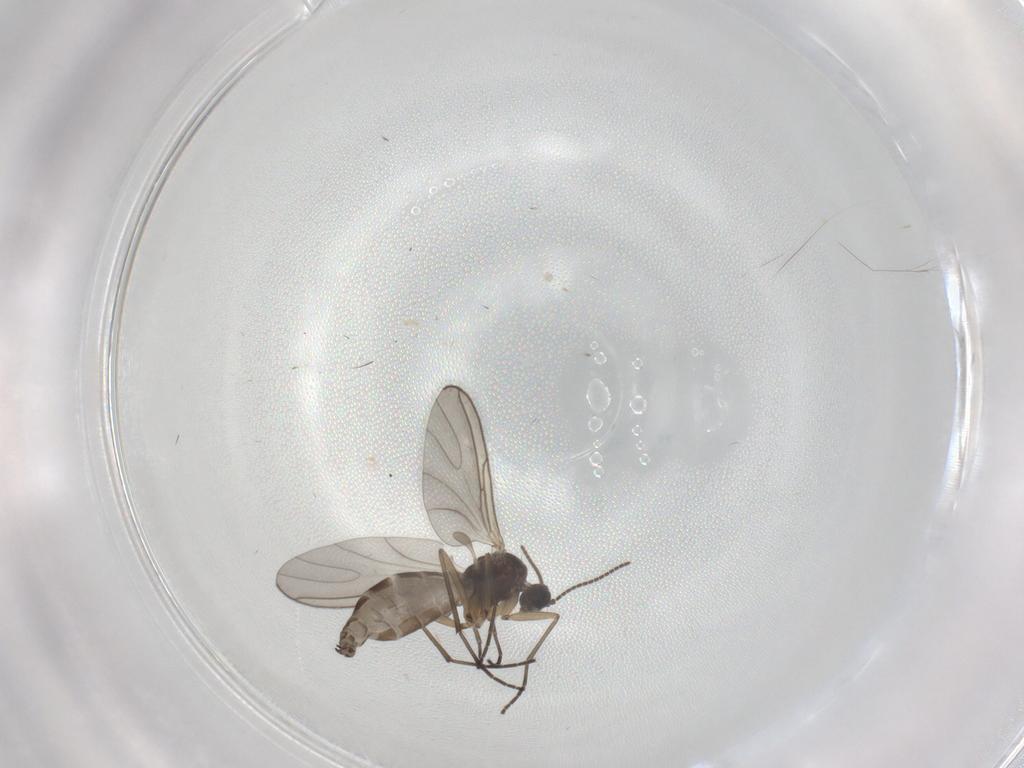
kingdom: Animalia
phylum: Arthropoda
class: Insecta
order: Diptera
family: Sciaridae
